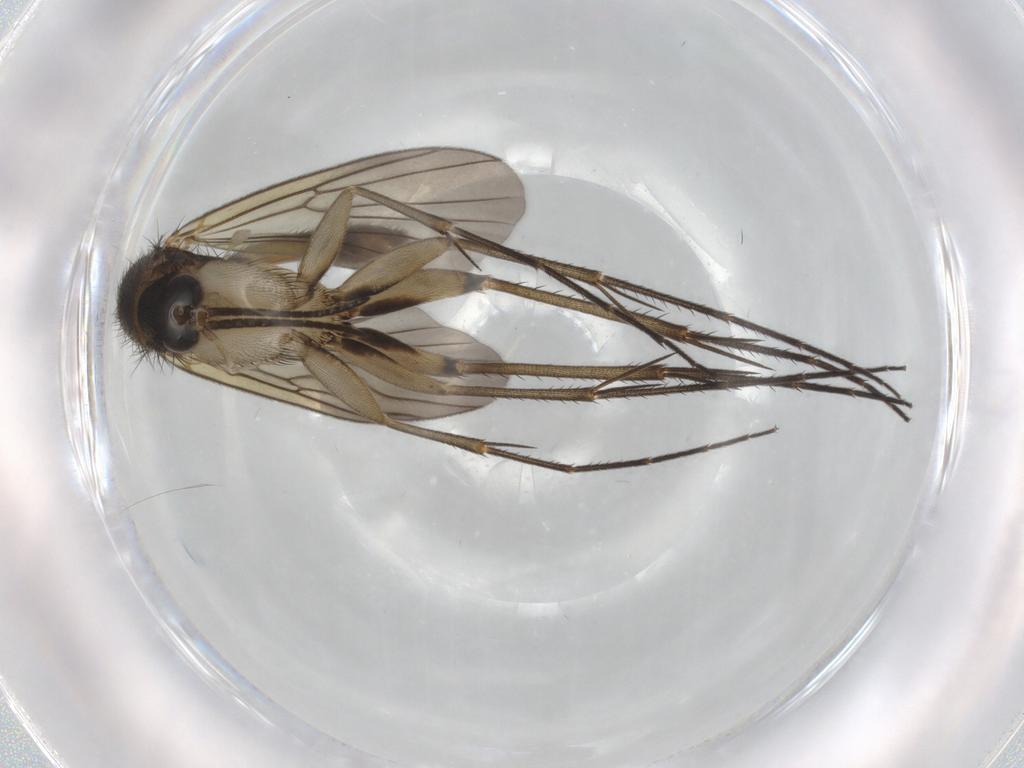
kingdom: Animalia
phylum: Arthropoda
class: Insecta
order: Diptera
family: Mycetophilidae
